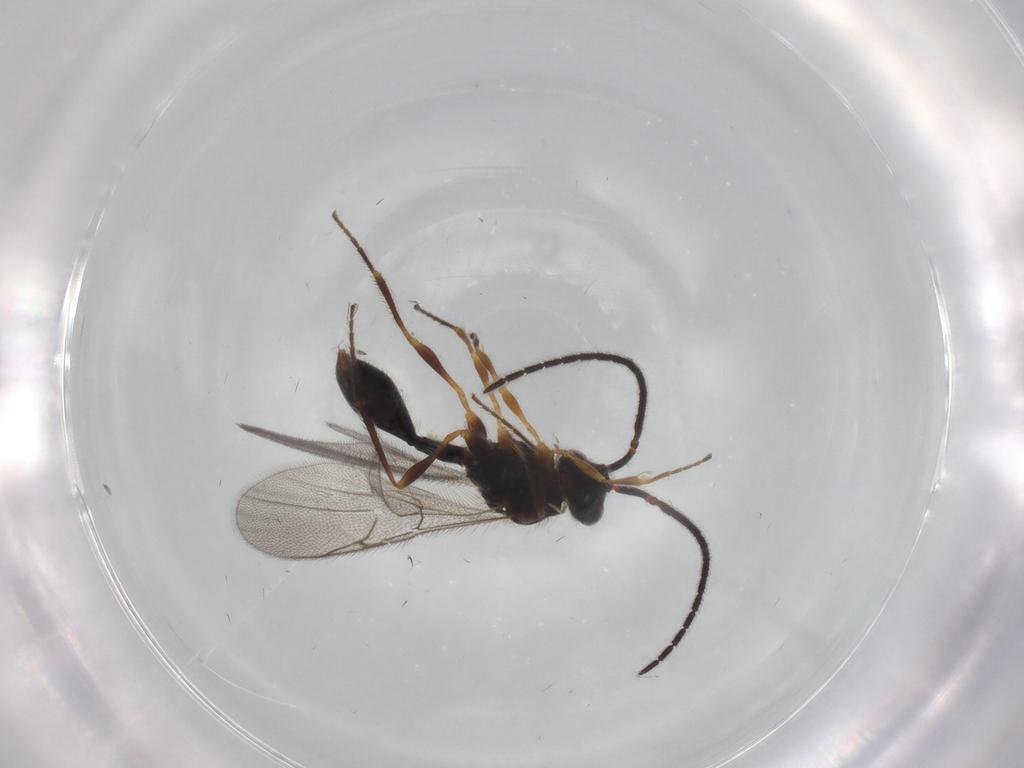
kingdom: Animalia
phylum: Arthropoda
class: Insecta
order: Hymenoptera
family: Diapriidae
